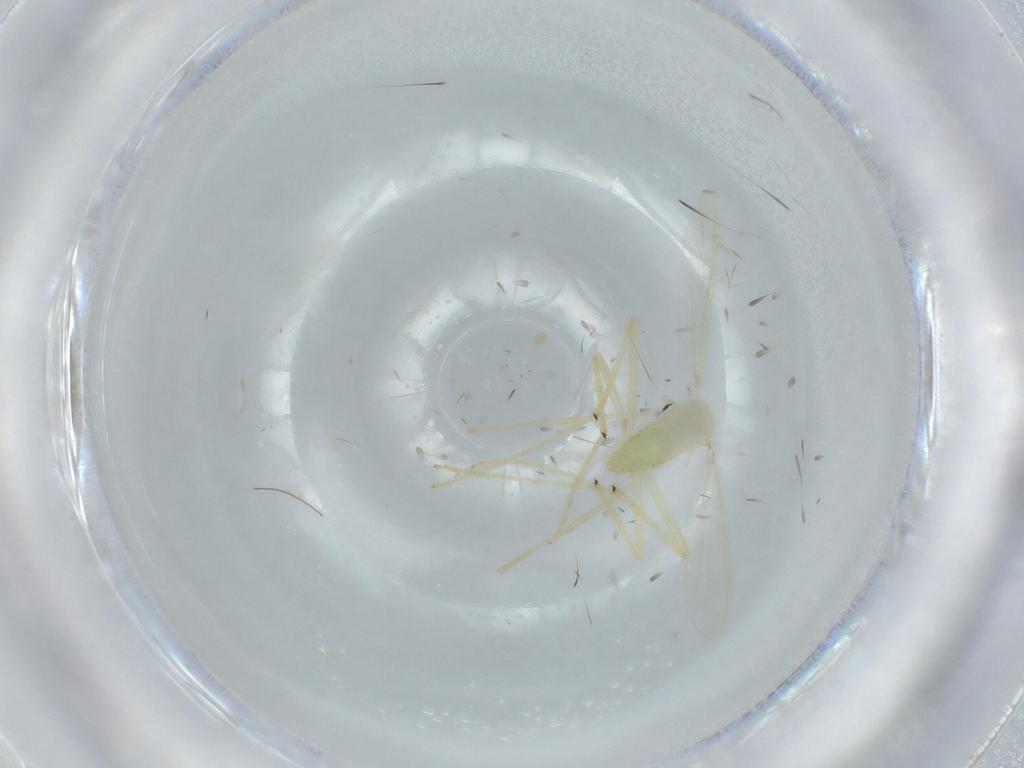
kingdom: Animalia
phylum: Arthropoda
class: Insecta
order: Diptera
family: Chironomidae
